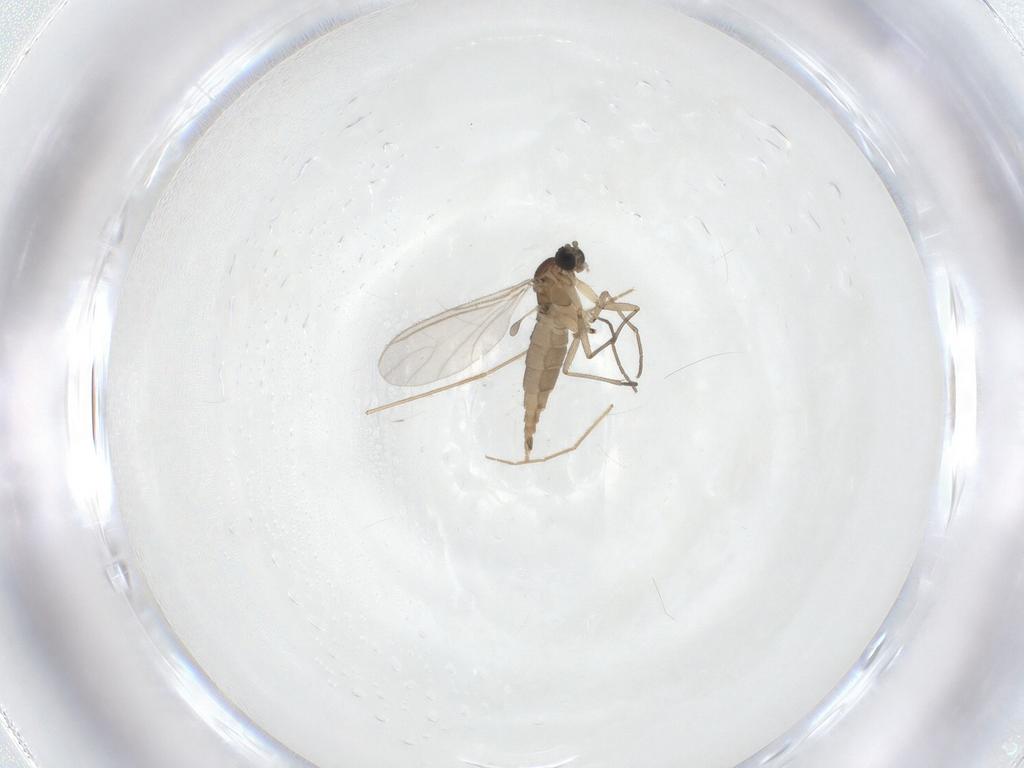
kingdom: Animalia
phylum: Arthropoda
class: Insecta
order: Diptera
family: Sciaridae
